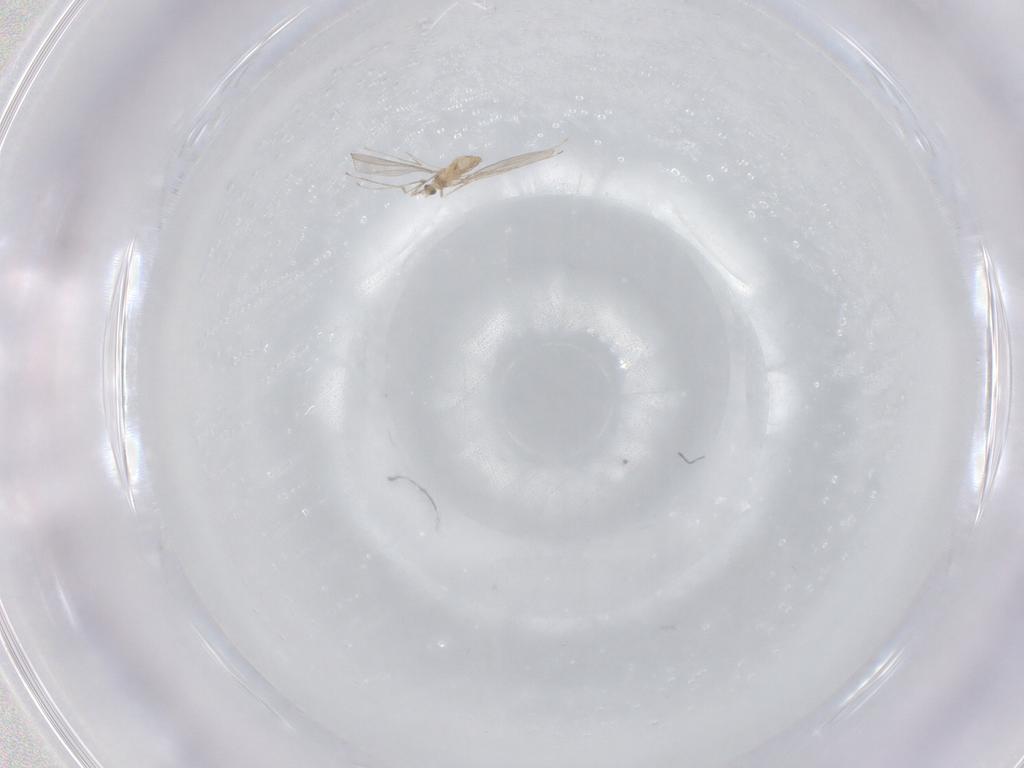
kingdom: Animalia
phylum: Arthropoda
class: Insecta
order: Diptera
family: Cecidomyiidae
